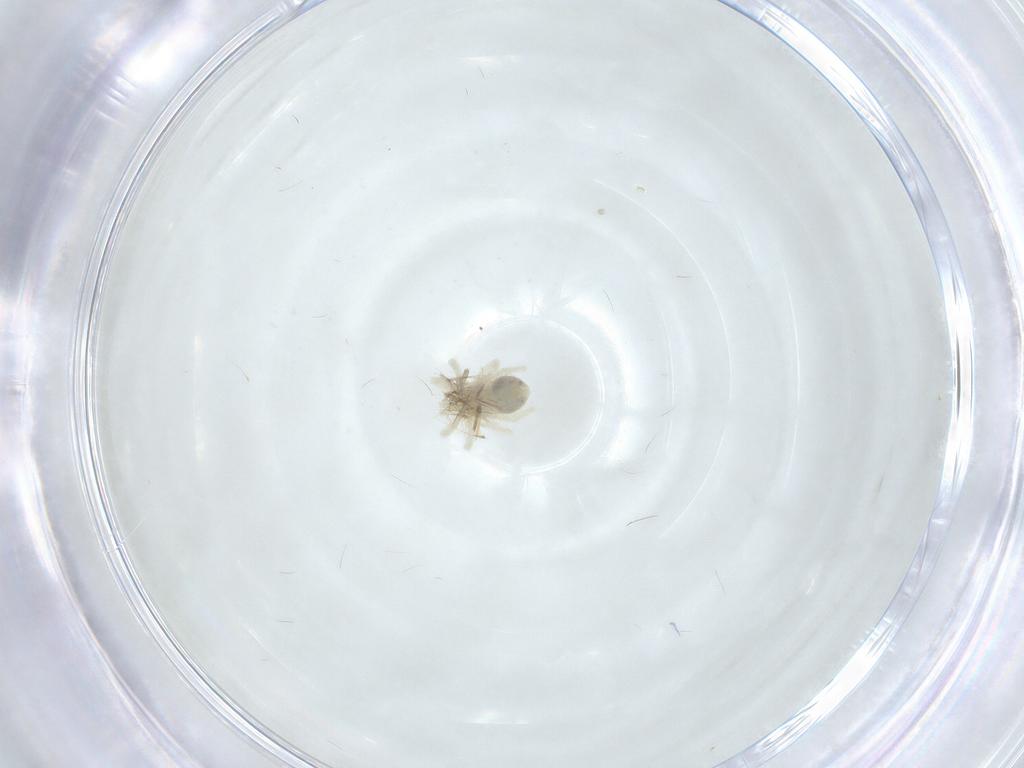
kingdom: Animalia
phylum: Arthropoda
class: Arachnida
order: Trombidiformes
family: Anystidae
